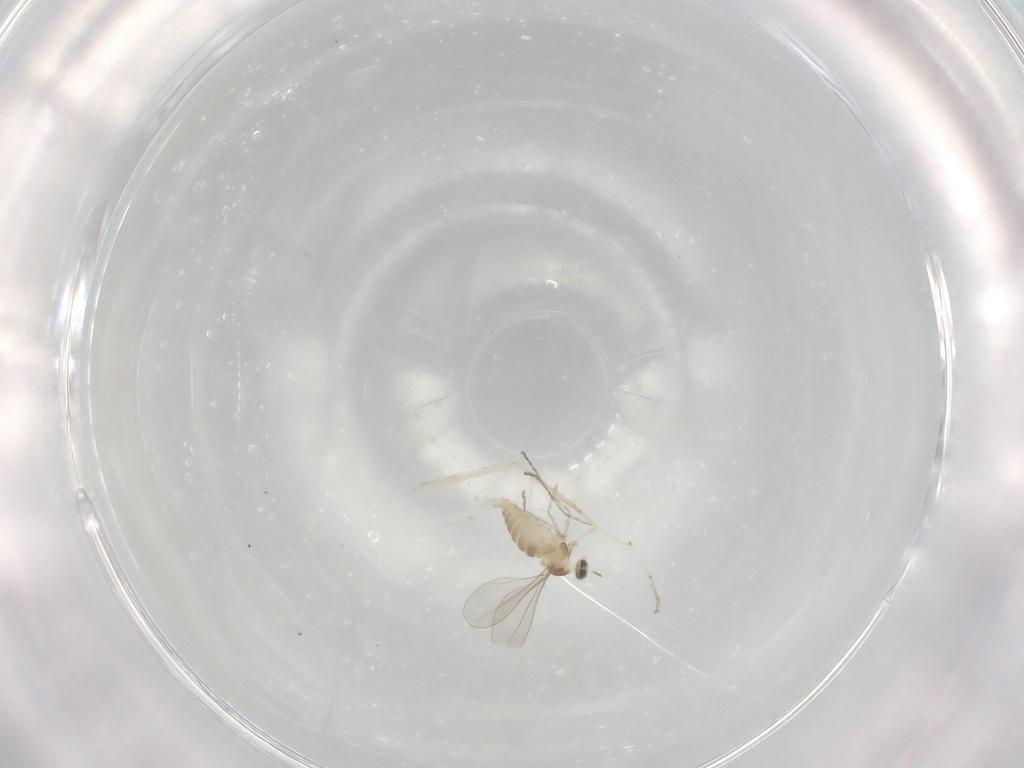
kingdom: Animalia
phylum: Arthropoda
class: Insecta
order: Diptera
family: Cecidomyiidae
